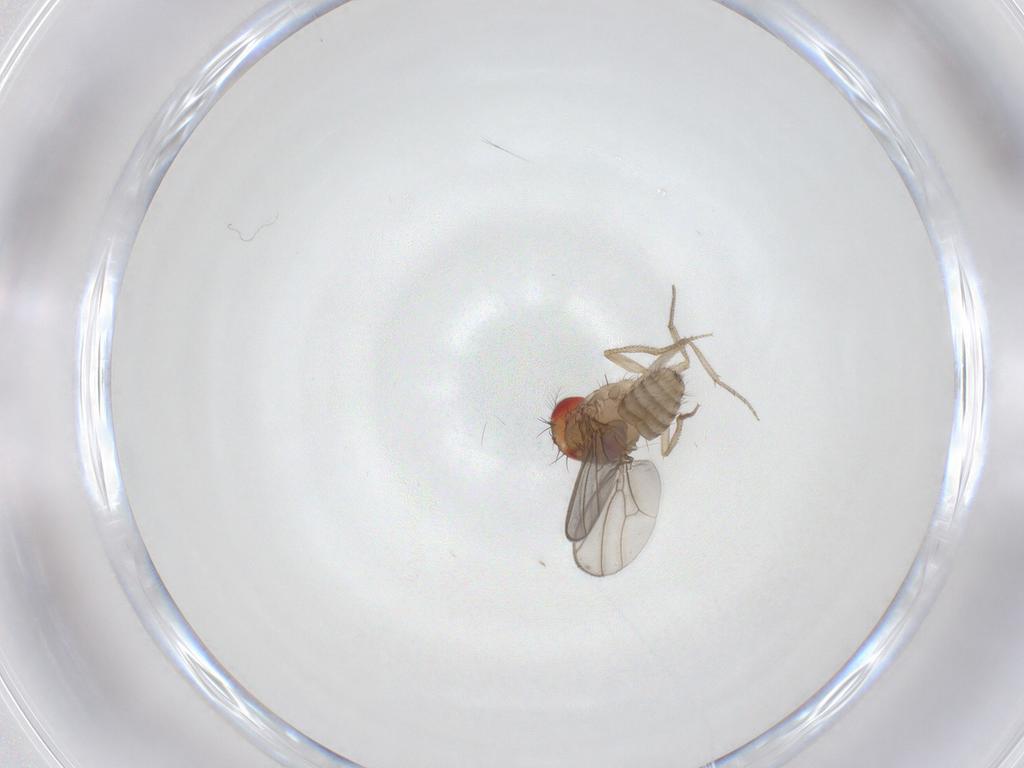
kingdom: Animalia
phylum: Arthropoda
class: Insecta
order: Diptera
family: Drosophilidae
